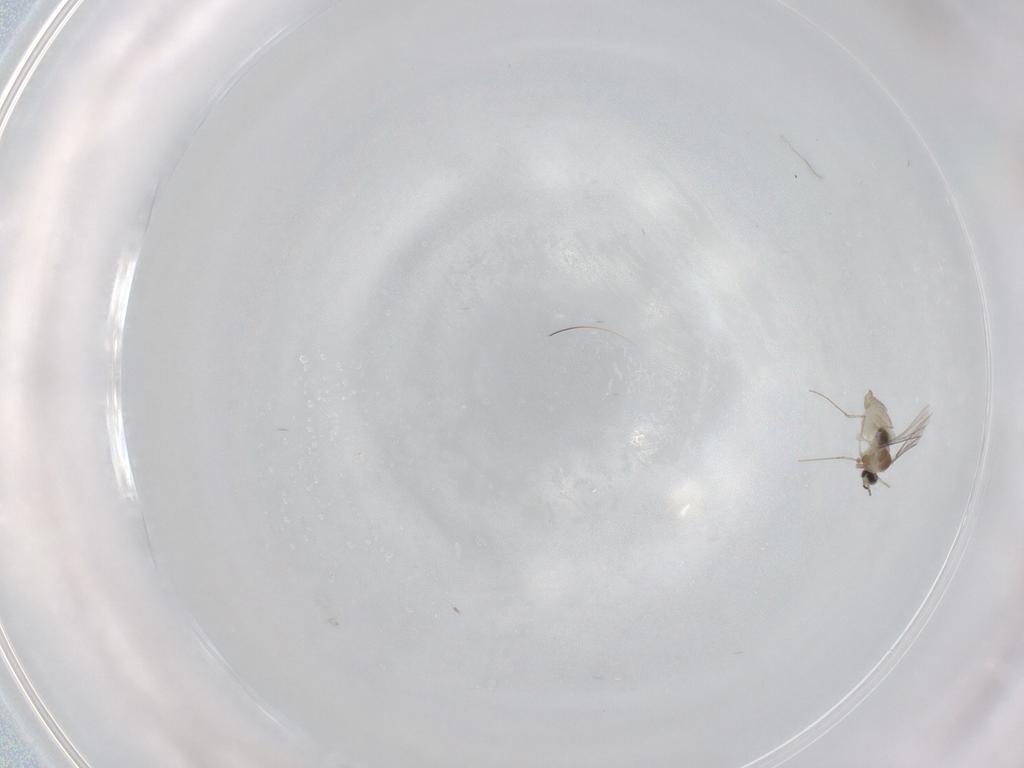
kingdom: Animalia
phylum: Arthropoda
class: Insecta
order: Diptera
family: Cecidomyiidae
